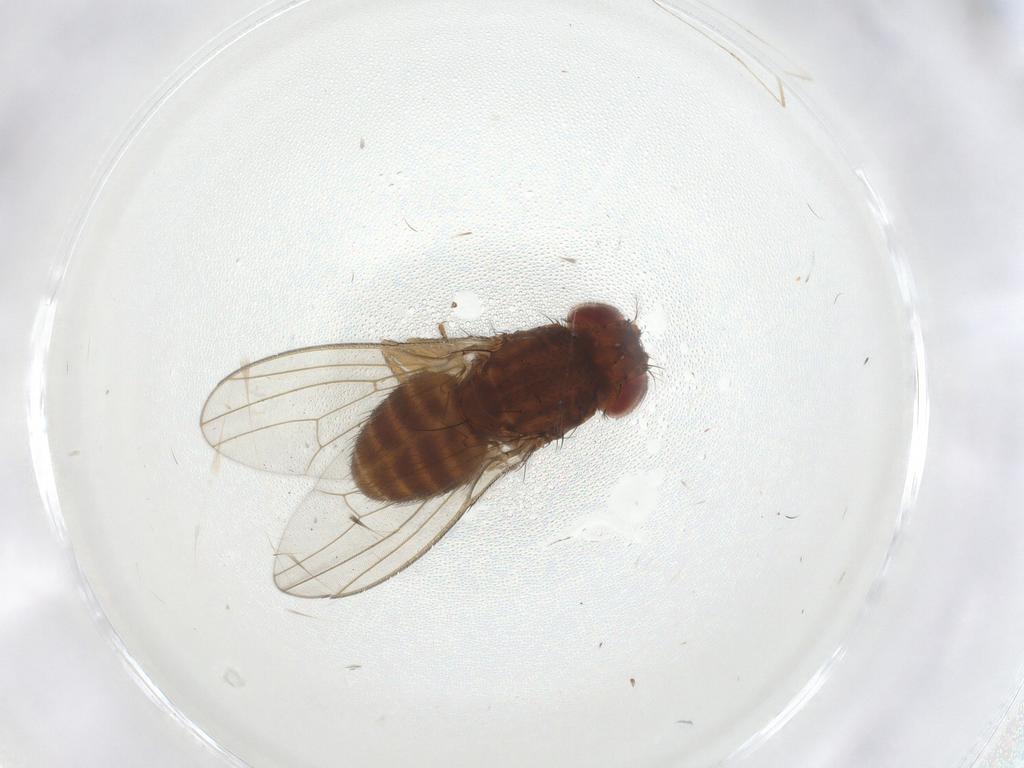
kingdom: Animalia
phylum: Arthropoda
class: Insecta
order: Diptera
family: Drosophilidae
